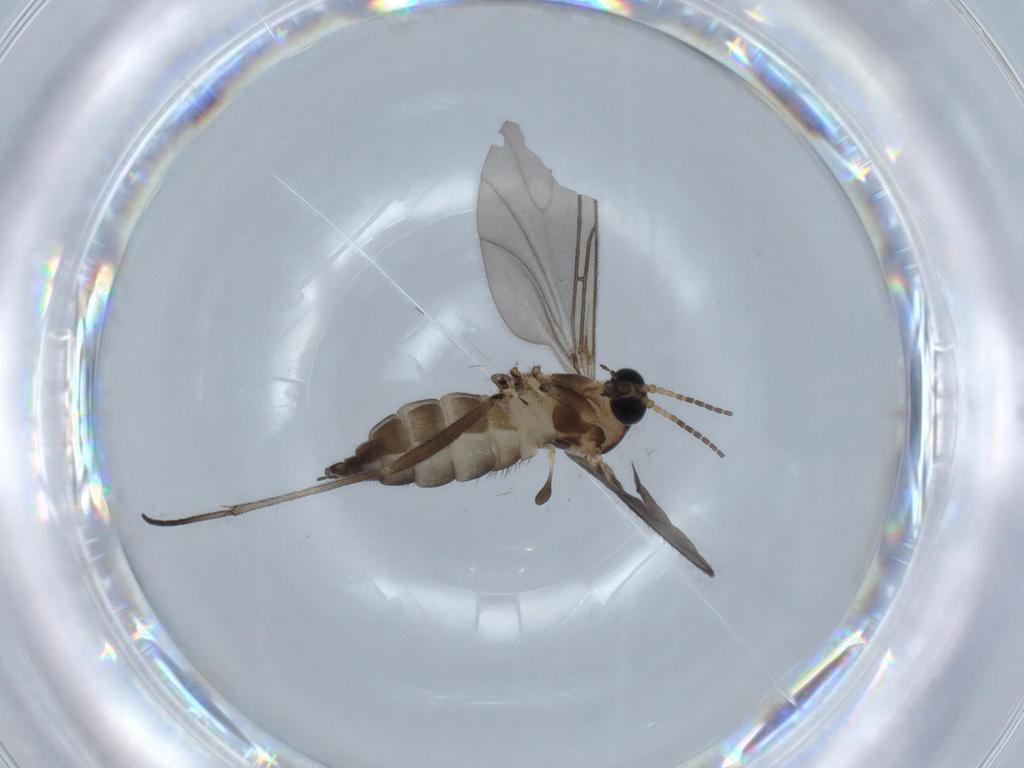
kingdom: Animalia
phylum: Arthropoda
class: Insecta
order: Diptera
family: Sciaridae
